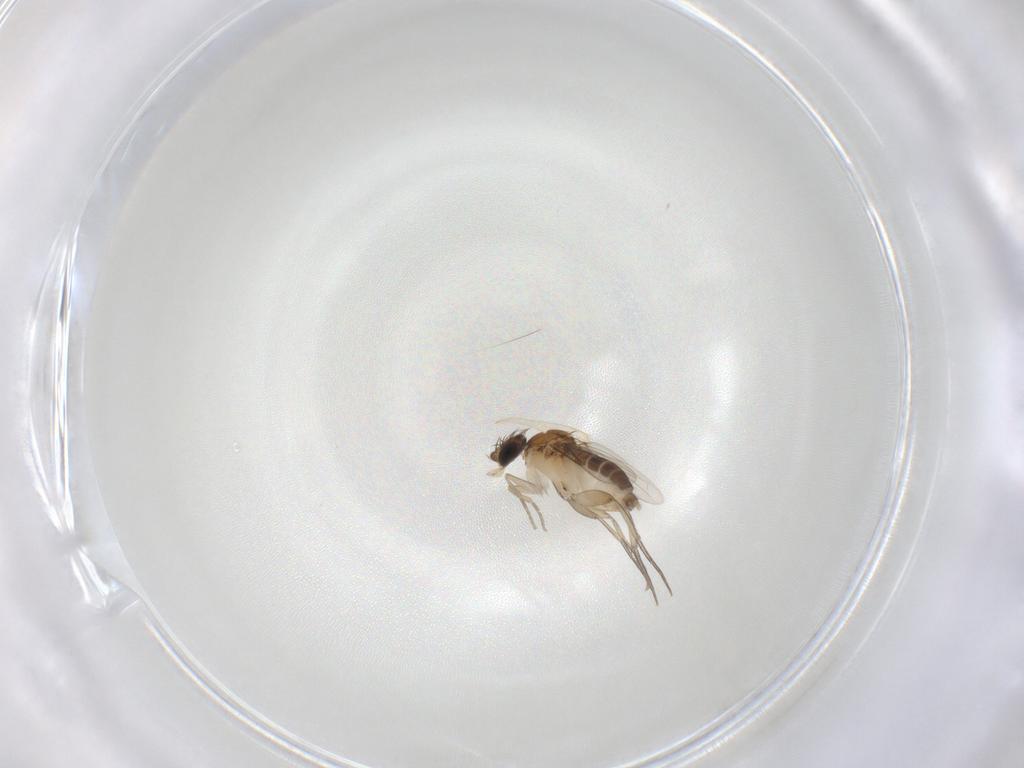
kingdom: Animalia
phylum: Arthropoda
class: Insecta
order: Diptera
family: Phoridae
